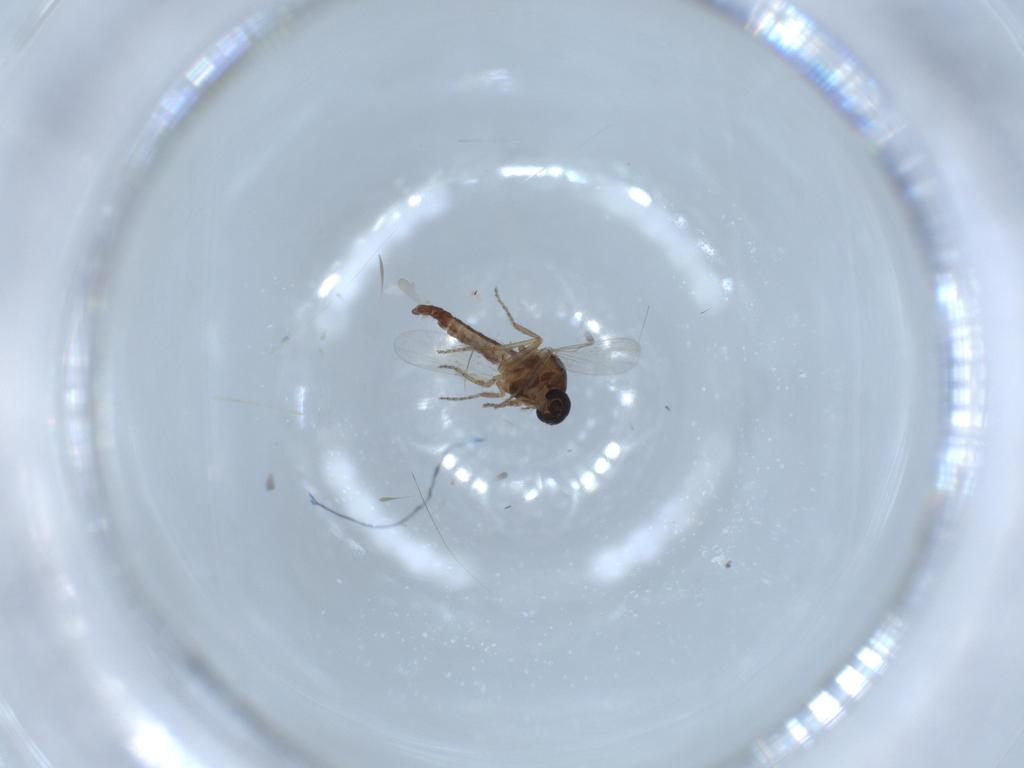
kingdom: Animalia
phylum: Arthropoda
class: Insecta
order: Diptera
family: Ceratopogonidae
